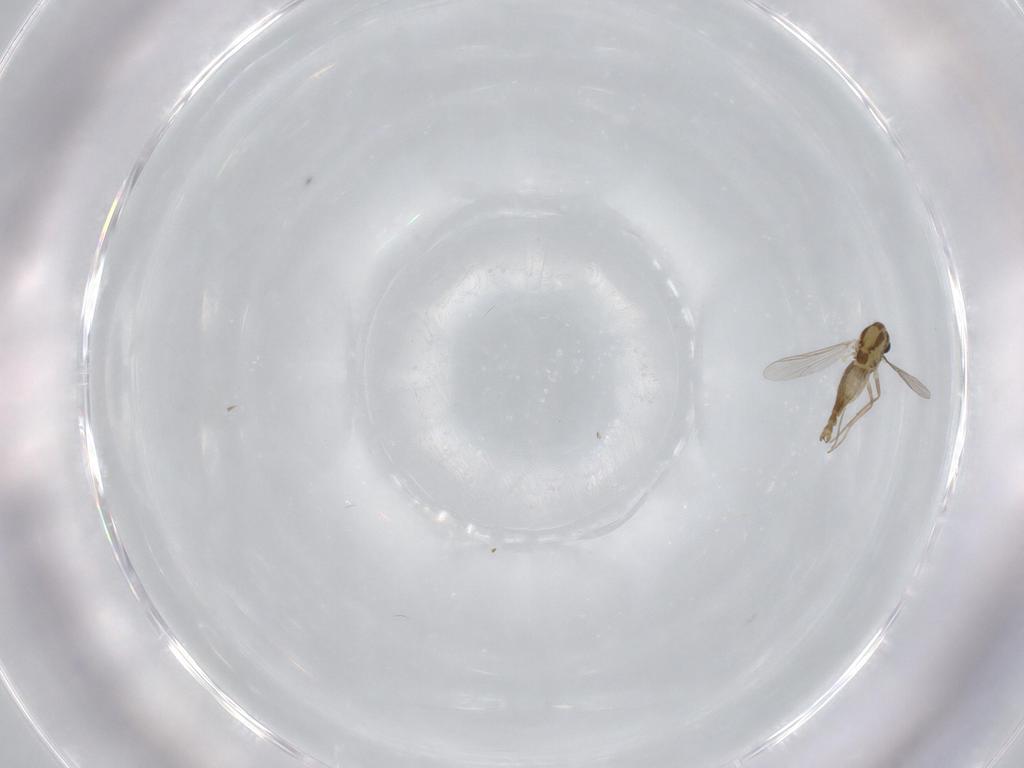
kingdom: Animalia
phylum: Arthropoda
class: Insecta
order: Diptera
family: Chironomidae
